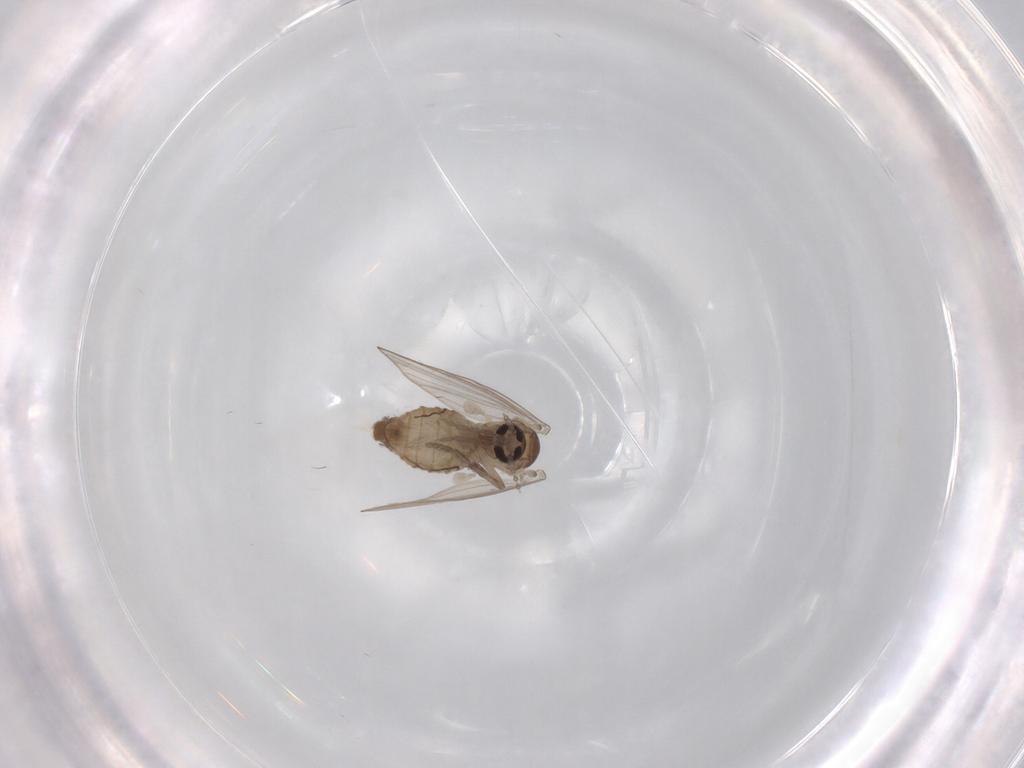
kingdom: Animalia
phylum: Arthropoda
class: Insecta
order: Diptera
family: Psychodidae
